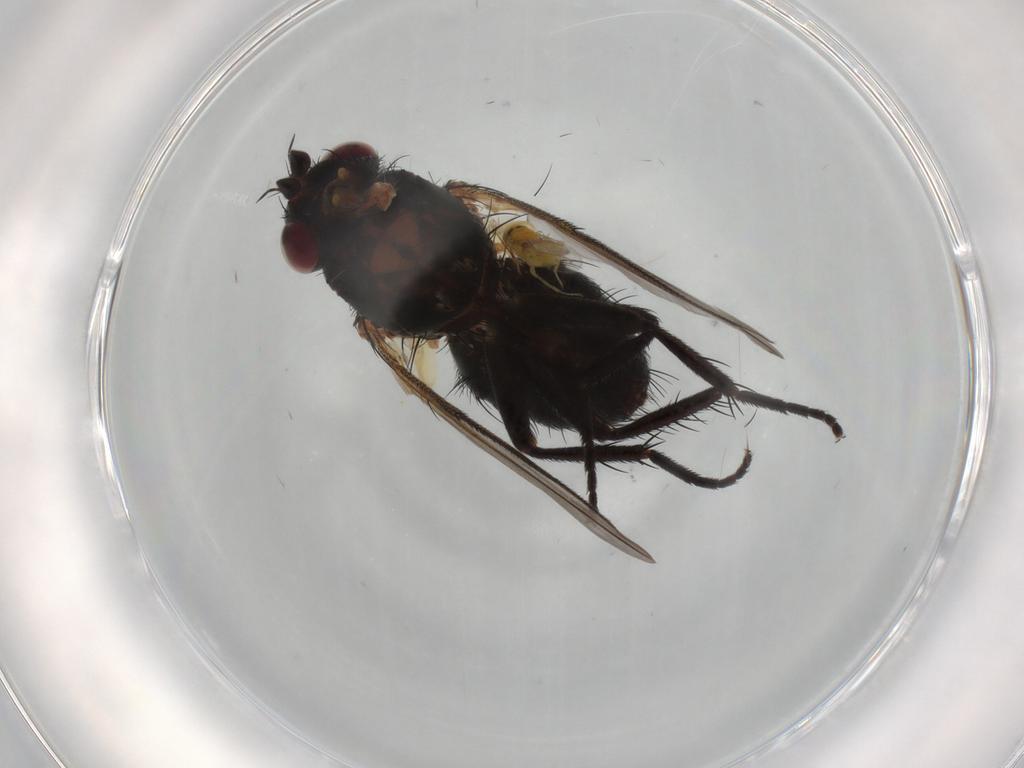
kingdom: Animalia
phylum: Arthropoda
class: Insecta
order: Diptera
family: Tachinidae
